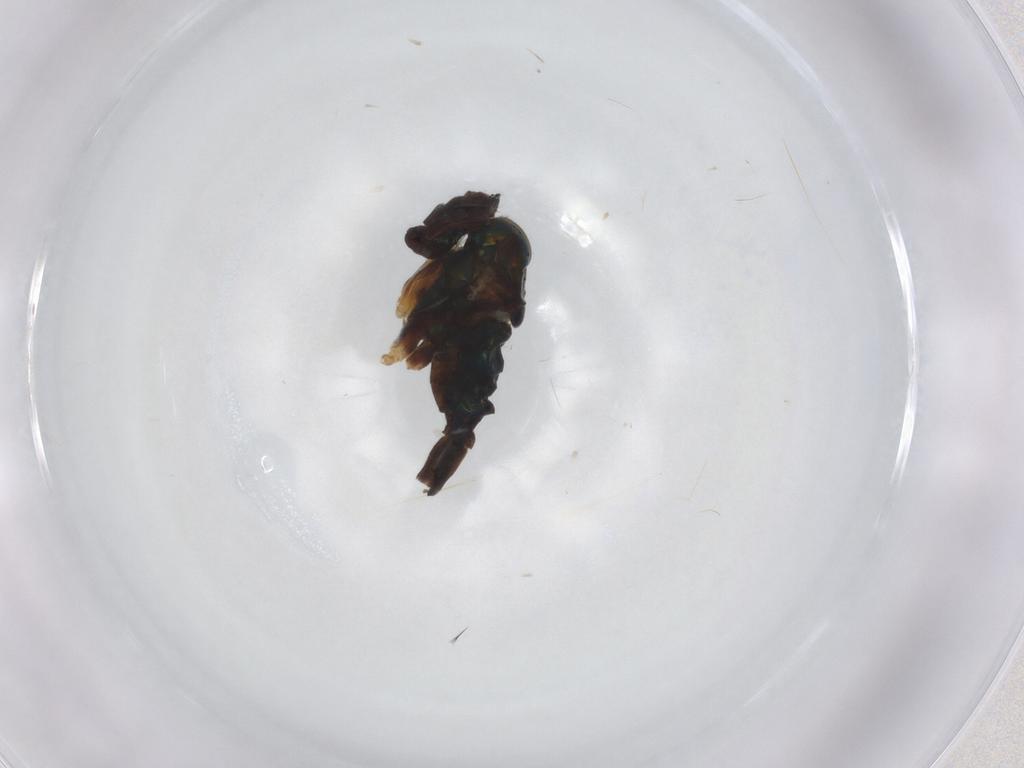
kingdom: Animalia
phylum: Arthropoda
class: Insecta
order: Diptera
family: Dolichopodidae
